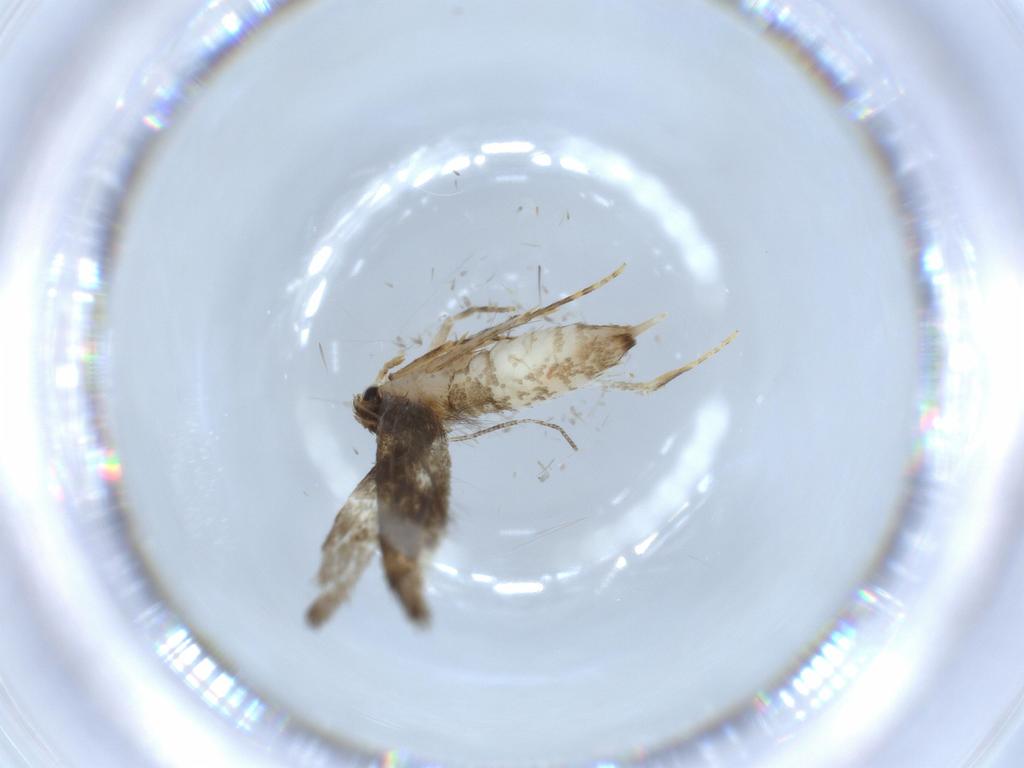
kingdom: Animalia
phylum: Arthropoda
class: Insecta
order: Lepidoptera
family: Tineidae
